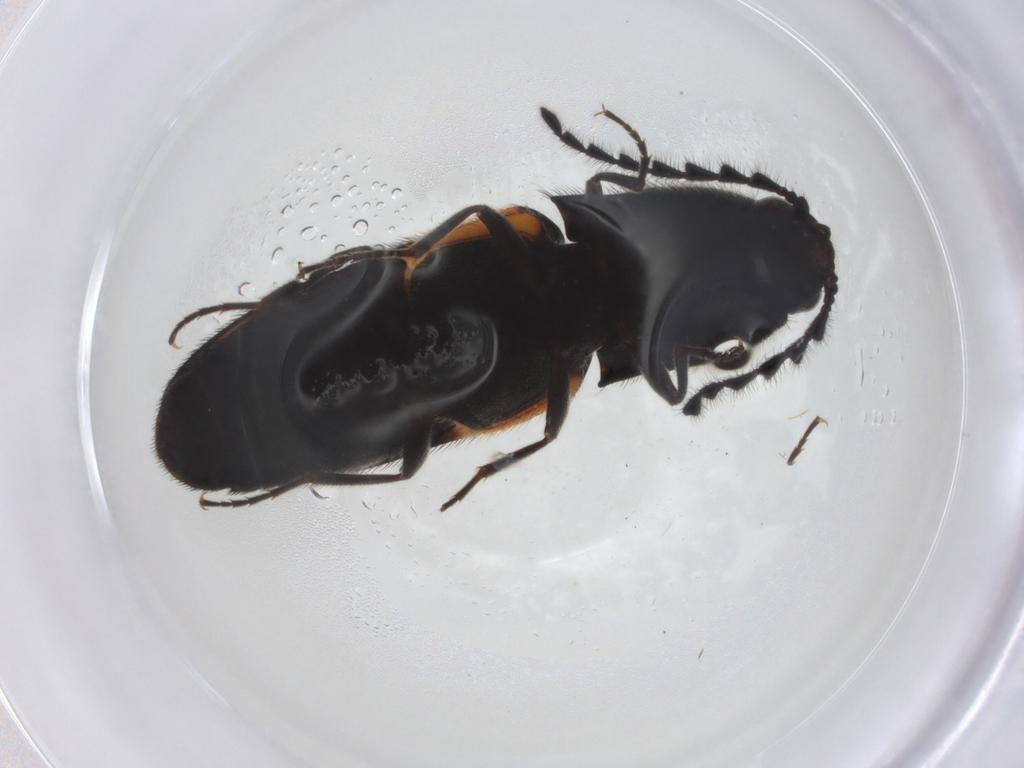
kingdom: Animalia
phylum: Arthropoda
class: Insecta
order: Coleoptera
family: Elateridae
